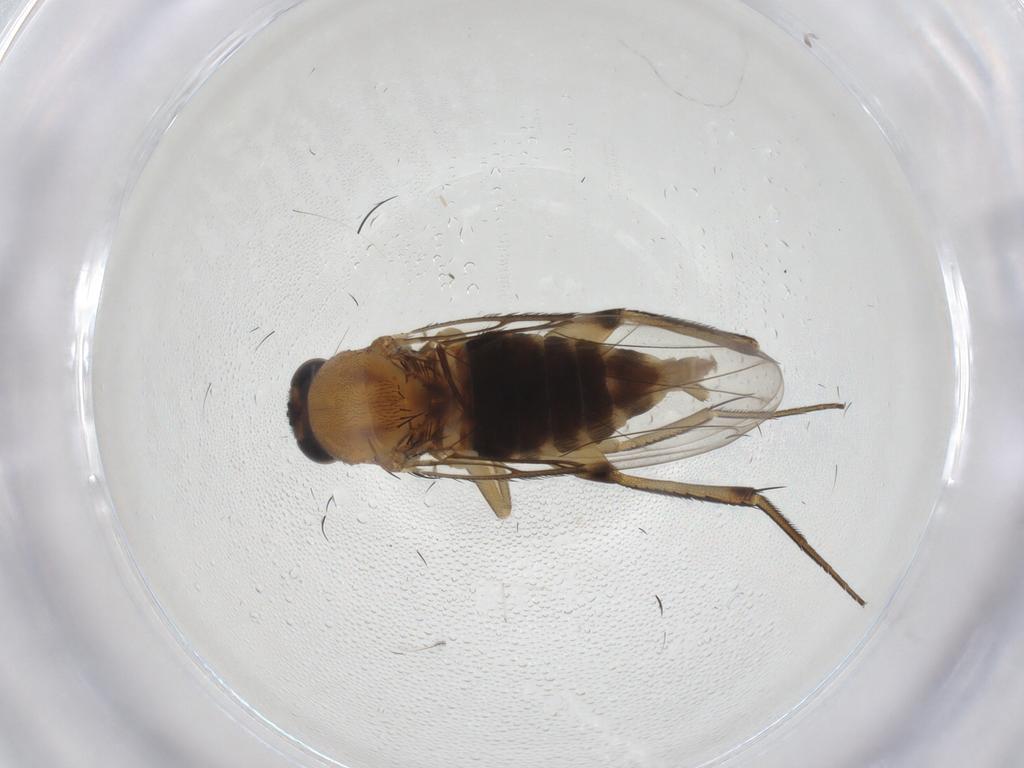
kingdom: Animalia
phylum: Arthropoda
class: Insecta
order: Diptera
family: Phoridae
